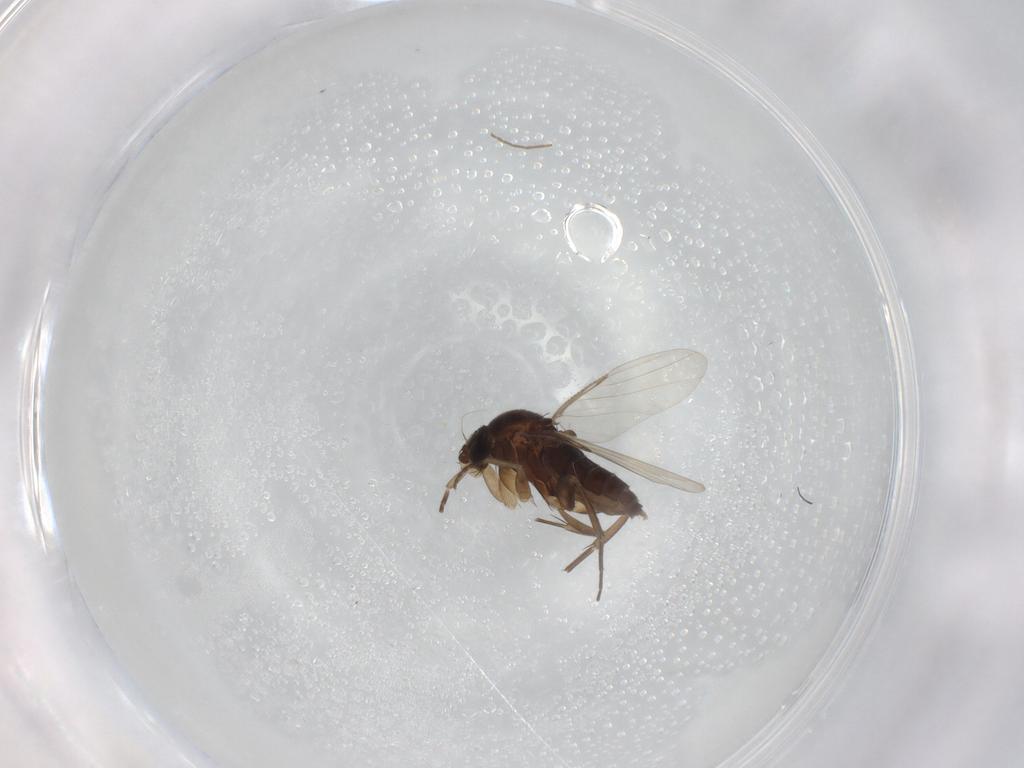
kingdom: Animalia
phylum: Arthropoda
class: Insecta
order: Diptera
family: Phoridae
